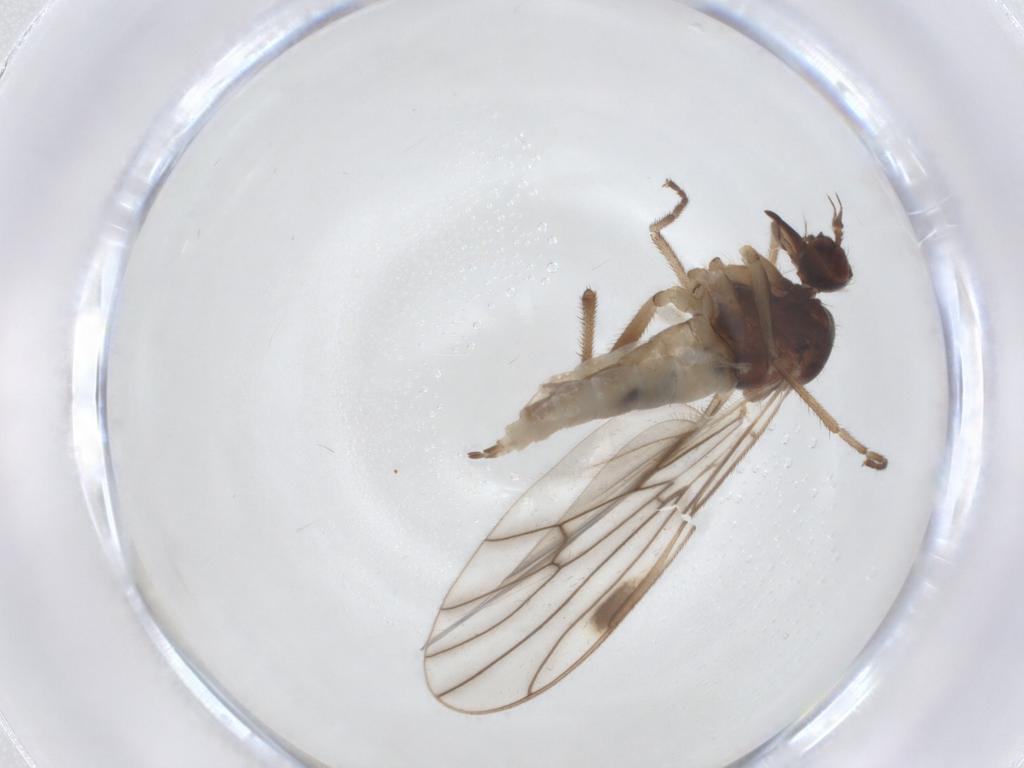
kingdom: Animalia
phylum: Arthropoda
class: Insecta
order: Diptera
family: Empididae
